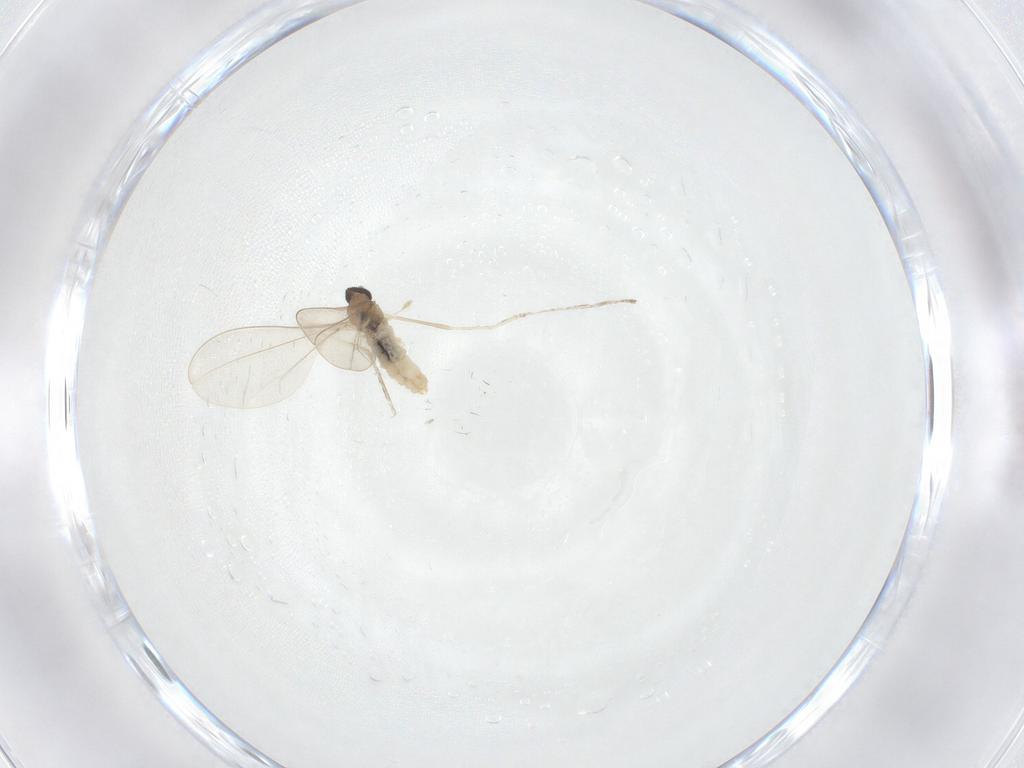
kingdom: Animalia
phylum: Arthropoda
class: Insecta
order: Diptera
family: Cecidomyiidae
